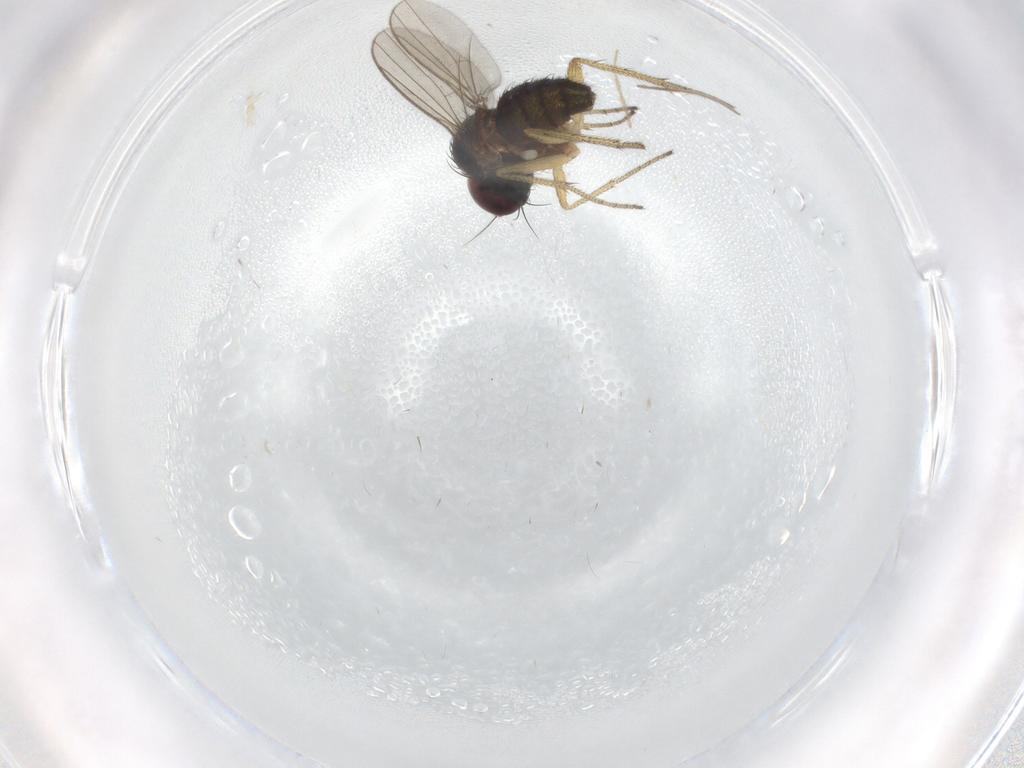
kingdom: Animalia
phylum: Arthropoda
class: Insecta
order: Diptera
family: Chironomidae
